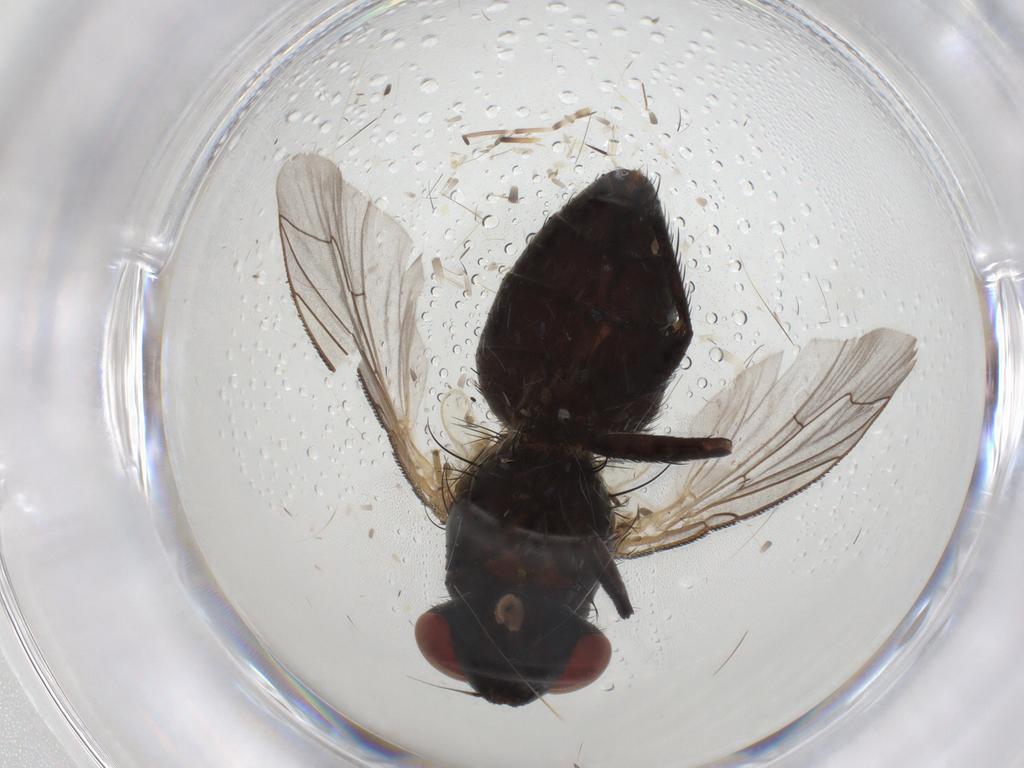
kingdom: Animalia
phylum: Arthropoda
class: Insecta
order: Diptera
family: Sarcophagidae
